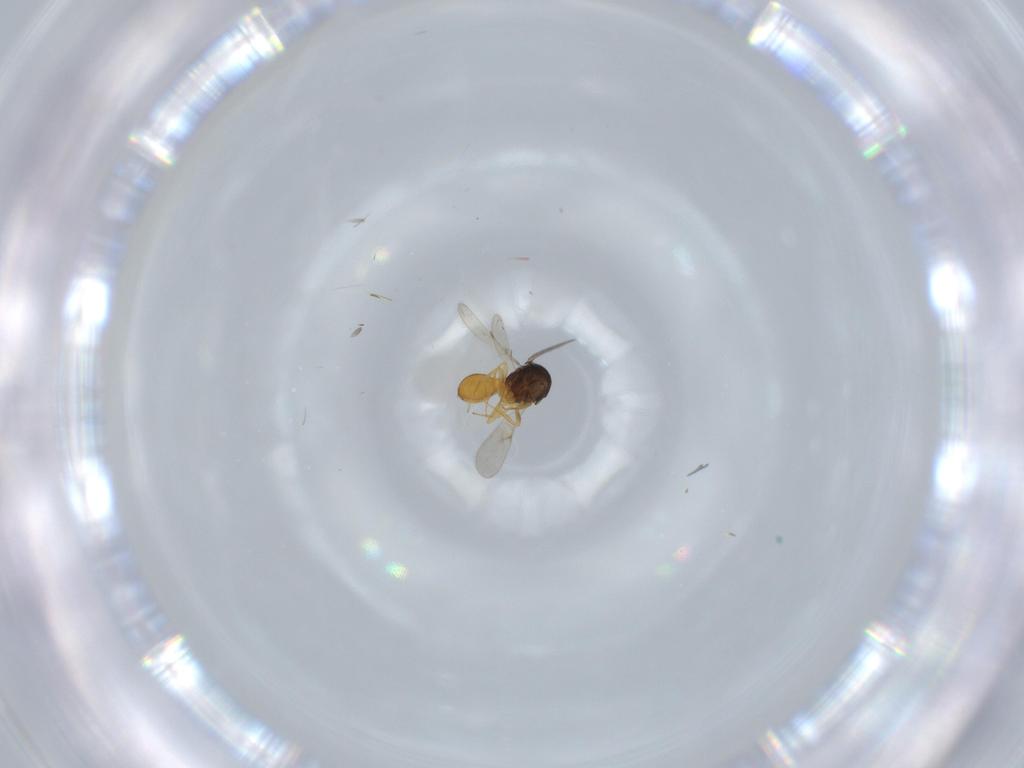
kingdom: Animalia
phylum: Arthropoda
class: Insecta
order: Hymenoptera
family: Scelionidae
